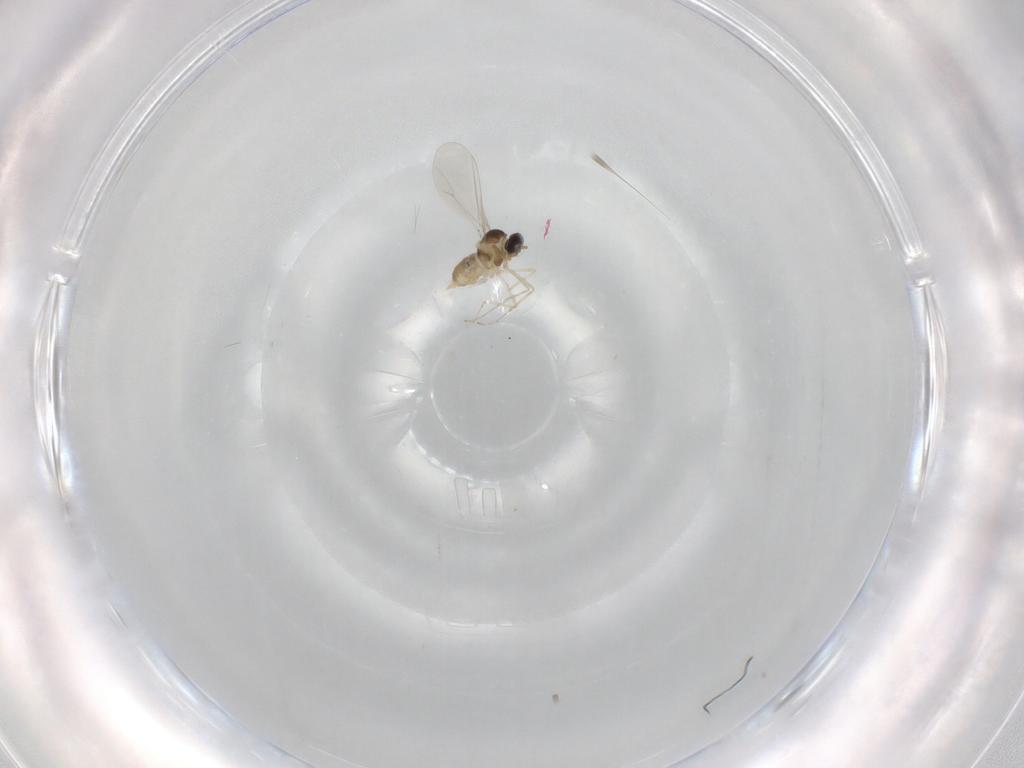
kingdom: Animalia
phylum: Arthropoda
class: Insecta
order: Diptera
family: Cecidomyiidae
